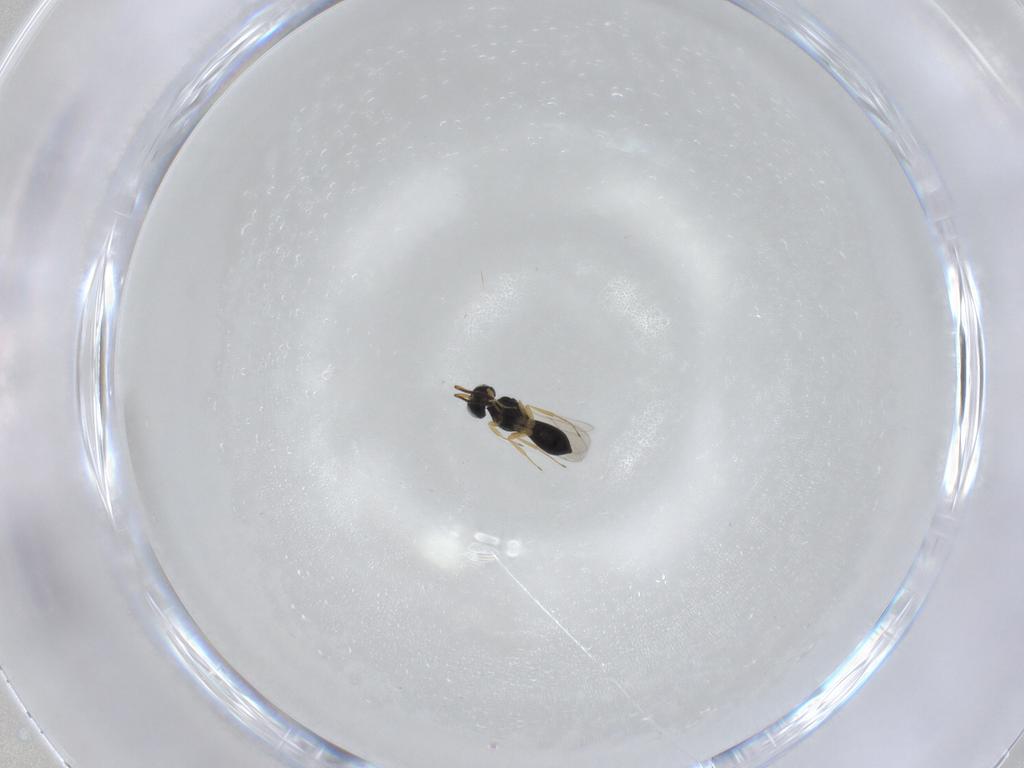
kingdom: Animalia
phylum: Arthropoda
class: Insecta
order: Hymenoptera
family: Scelionidae
